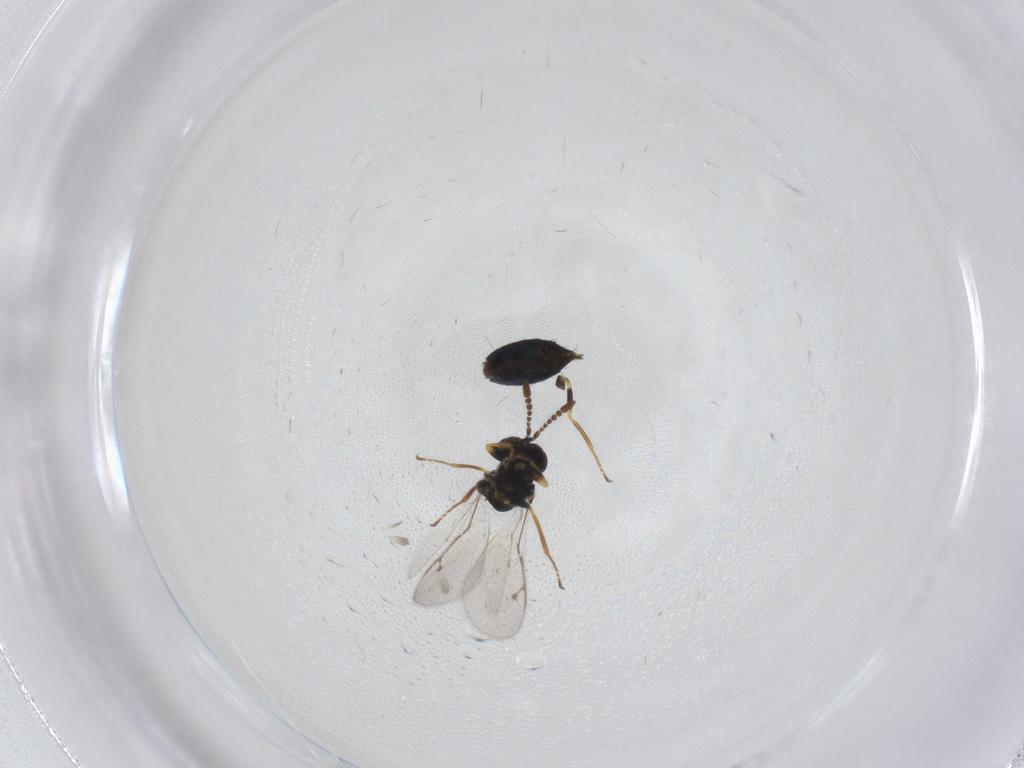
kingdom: Animalia
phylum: Arthropoda
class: Insecta
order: Hymenoptera
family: Pirenidae
